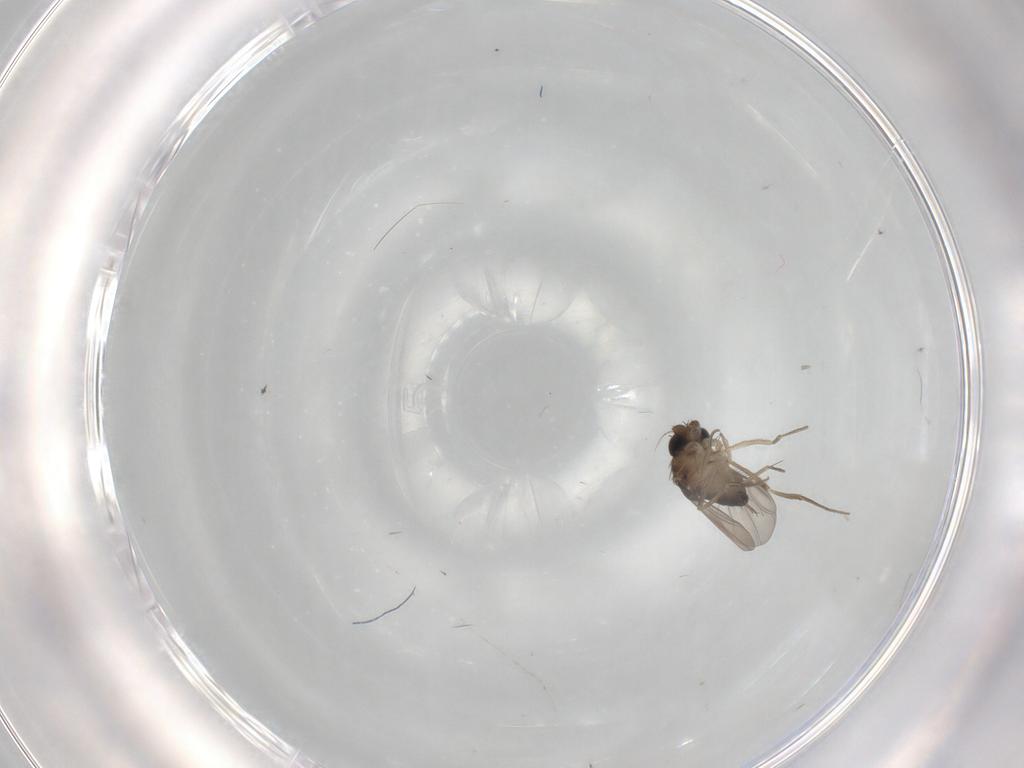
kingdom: Animalia
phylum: Arthropoda
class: Insecta
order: Diptera
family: Phoridae
